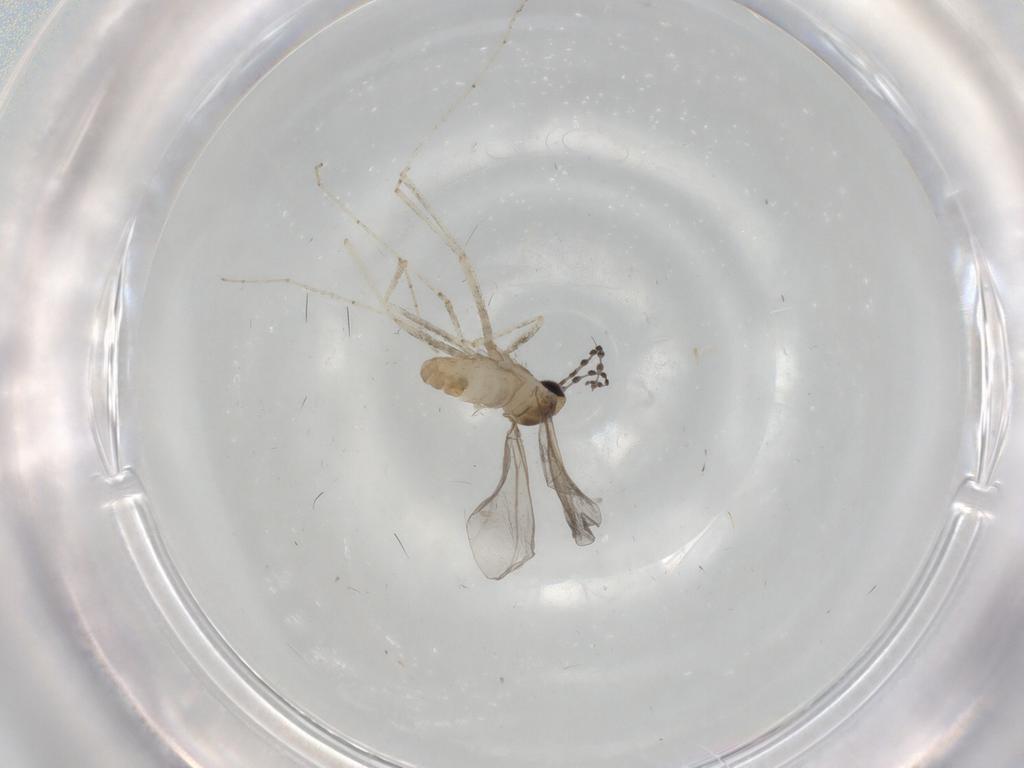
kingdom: Animalia
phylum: Arthropoda
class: Insecta
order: Diptera
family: Cecidomyiidae
